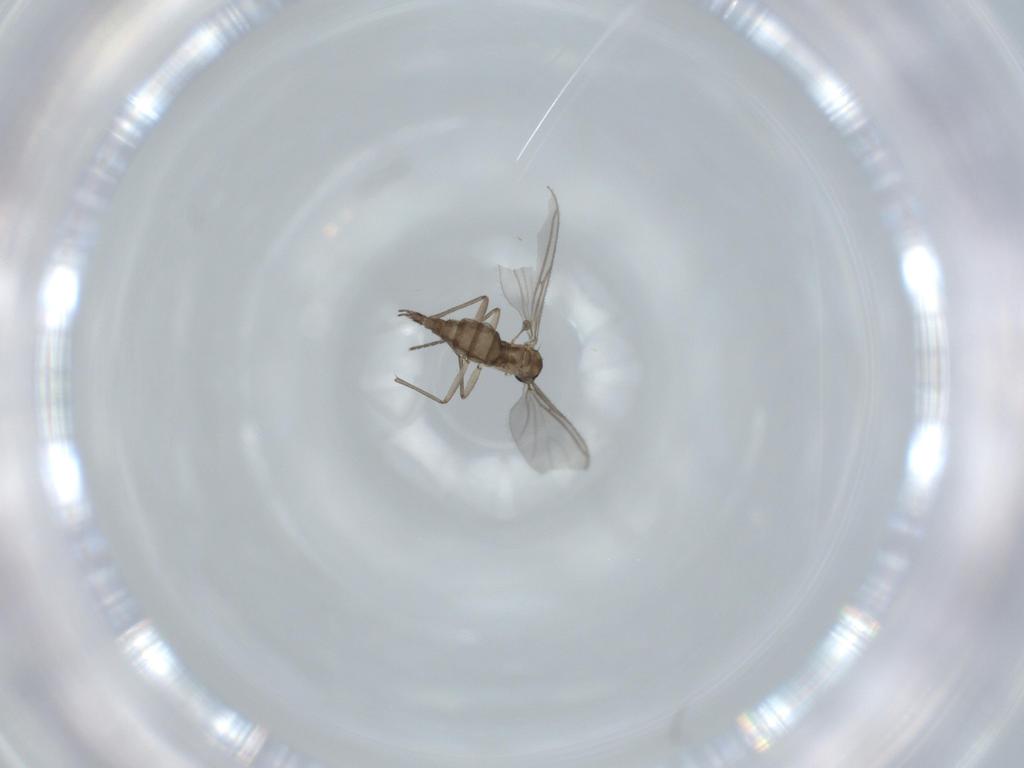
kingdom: Animalia
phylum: Arthropoda
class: Insecta
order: Diptera
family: Sciaridae
